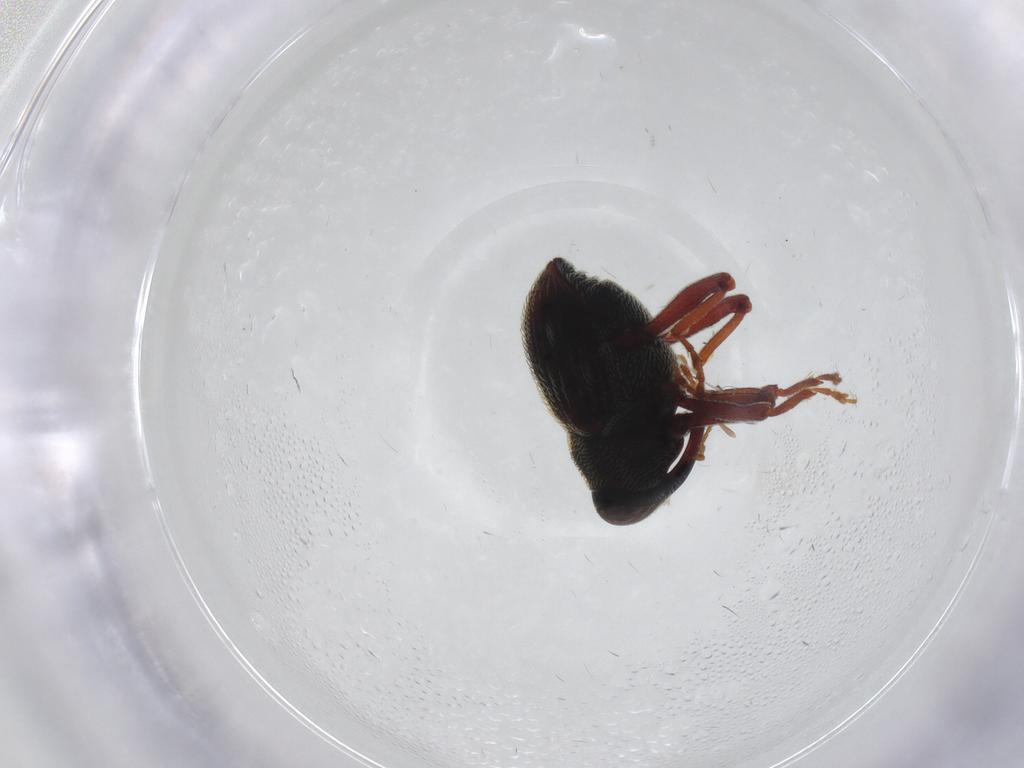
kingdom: Animalia
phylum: Arthropoda
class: Insecta
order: Coleoptera
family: Curculionidae
